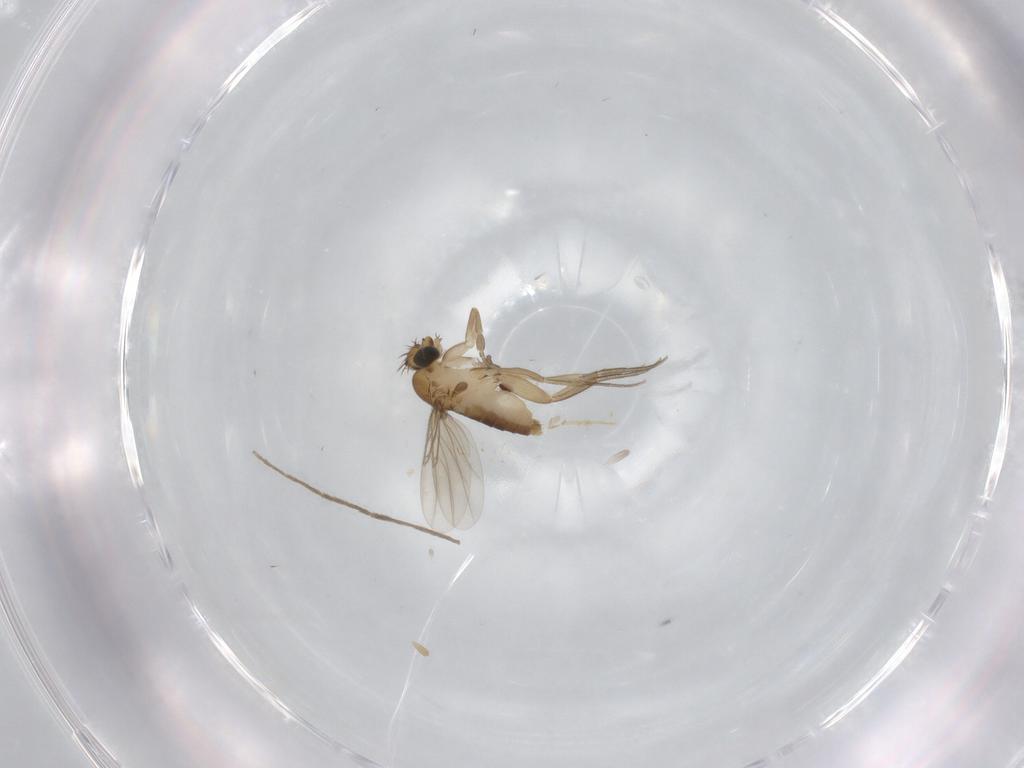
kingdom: Animalia
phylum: Arthropoda
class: Insecta
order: Diptera
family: Phoridae
